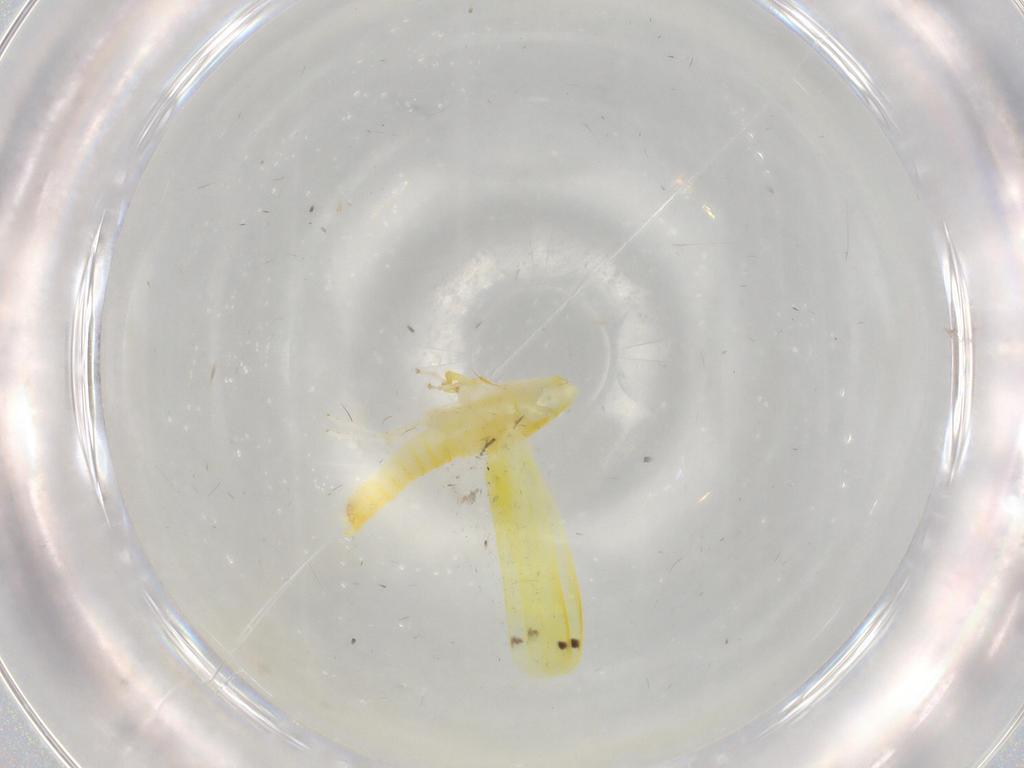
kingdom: Animalia
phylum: Arthropoda
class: Insecta
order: Hemiptera
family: Cicadellidae
